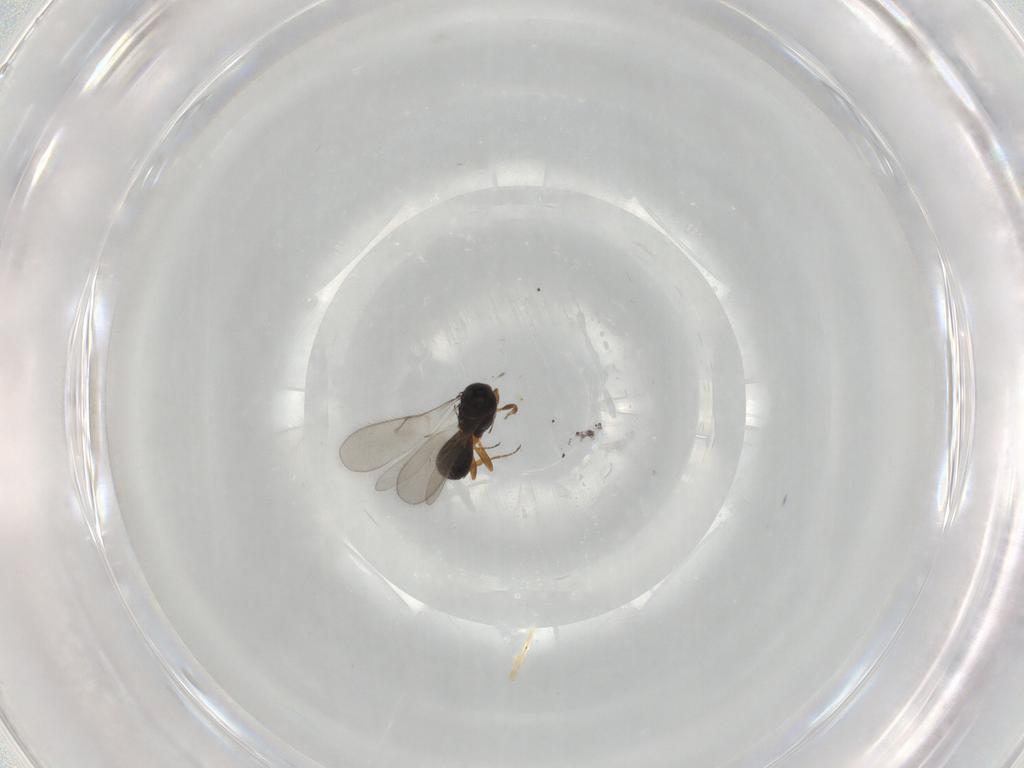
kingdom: Animalia
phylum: Arthropoda
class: Insecta
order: Hymenoptera
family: Scelionidae
